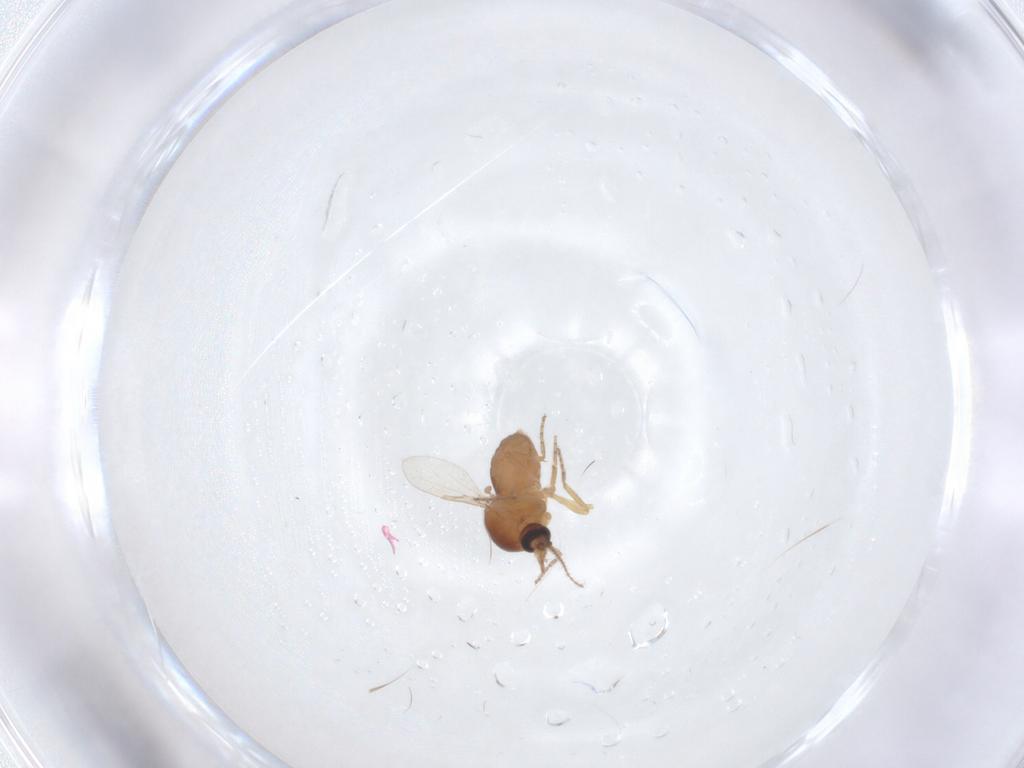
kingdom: Animalia
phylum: Arthropoda
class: Insecta
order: Diptera
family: Ceratopogonidae
